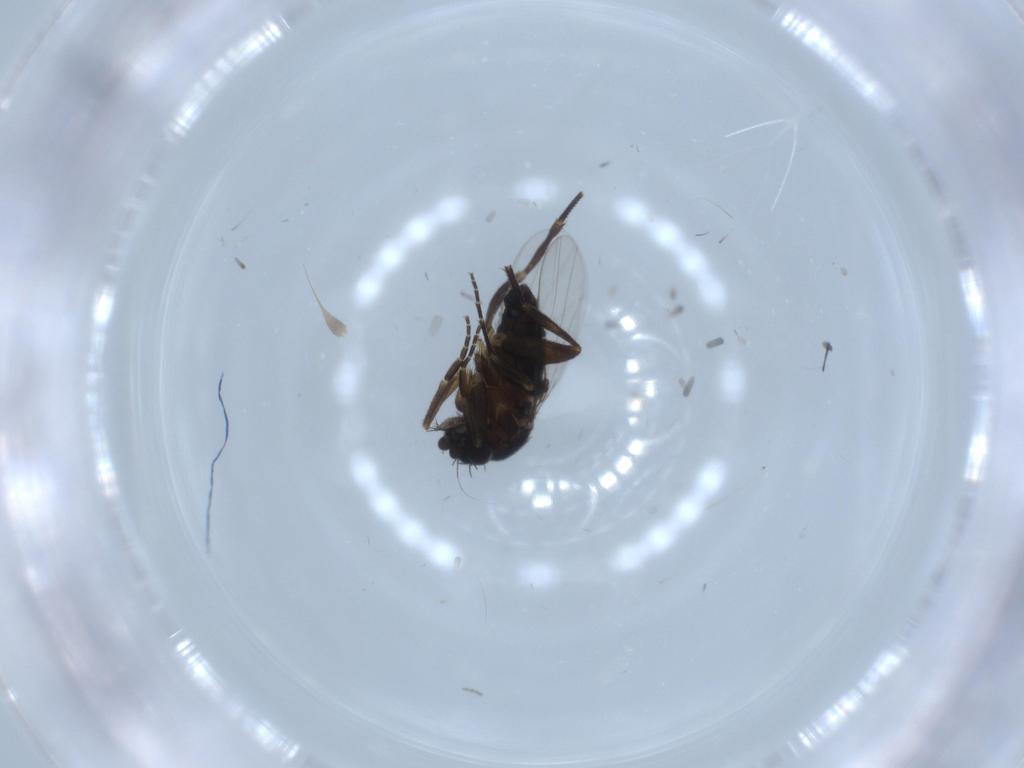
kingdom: Animalia
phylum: Arthropoda
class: Insecta
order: Diptera
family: Phoridae
